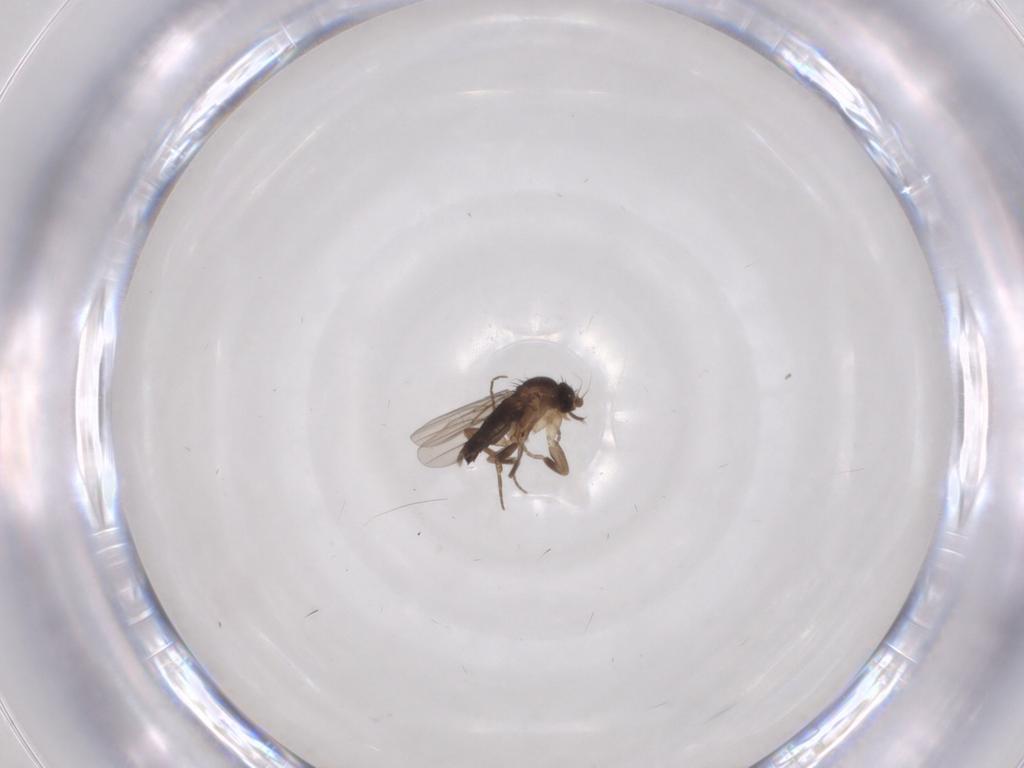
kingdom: Animalia
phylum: Arthropoda
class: Insecta
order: Diptera
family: Phoridae
